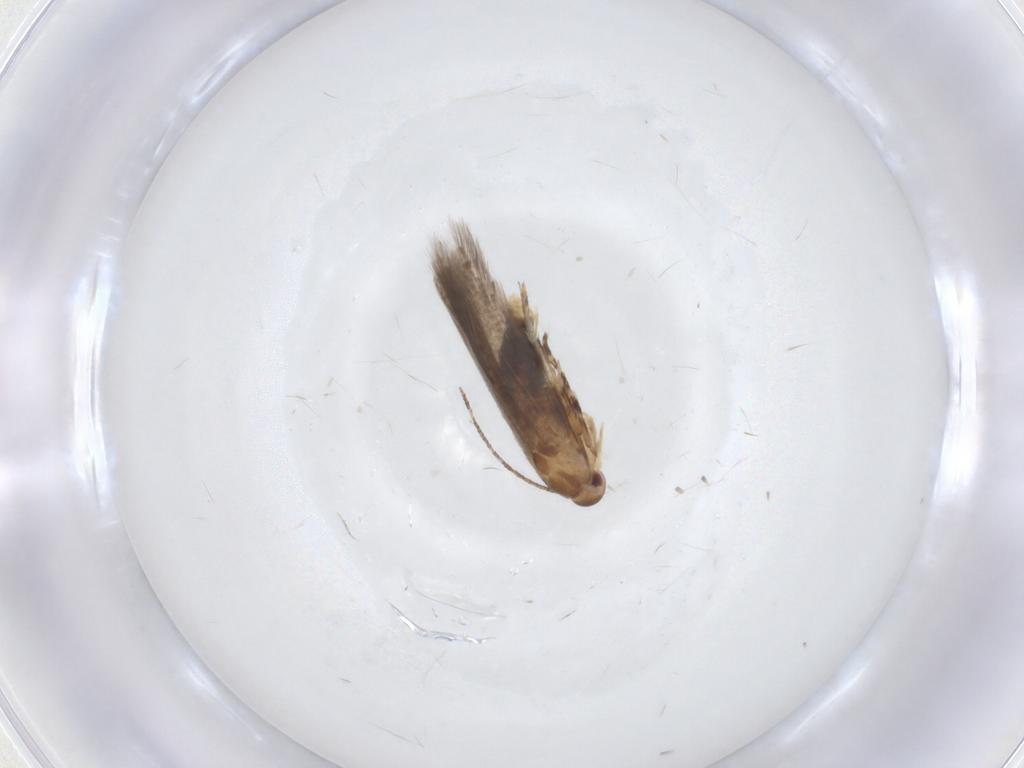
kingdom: Animalia
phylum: Arthropoda
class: Insecta
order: Lepidoptera
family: Momphidae
